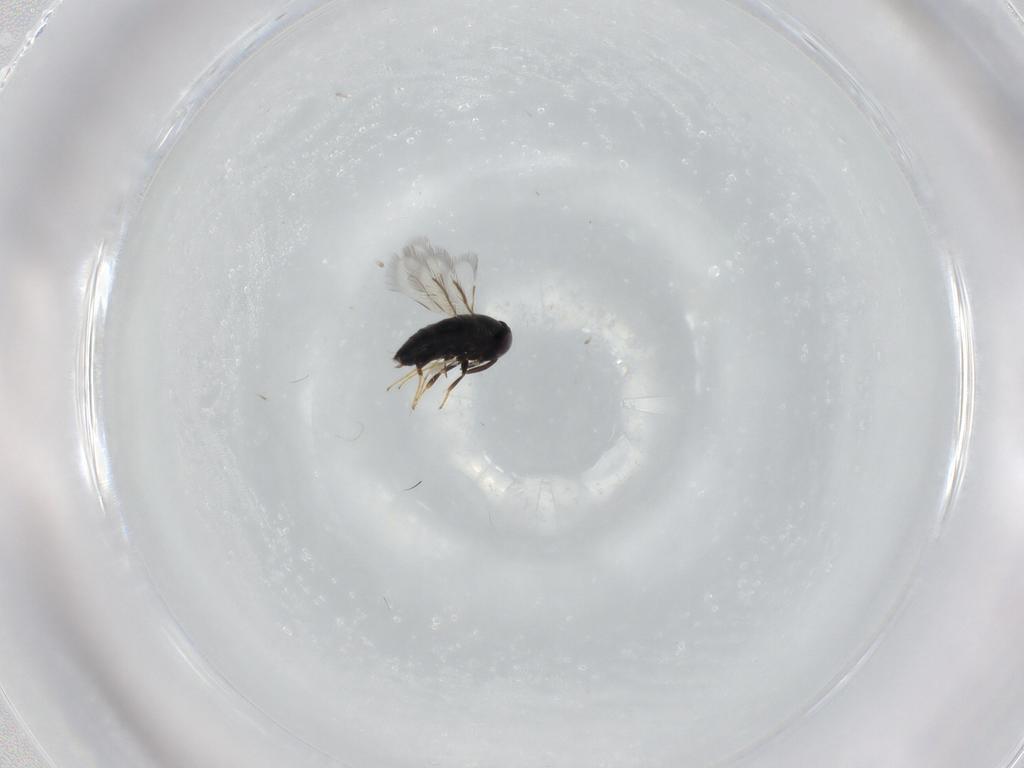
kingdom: Animalia
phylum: Arthropoda
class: Insecta
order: Hymenoptera
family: Signiphoridae
